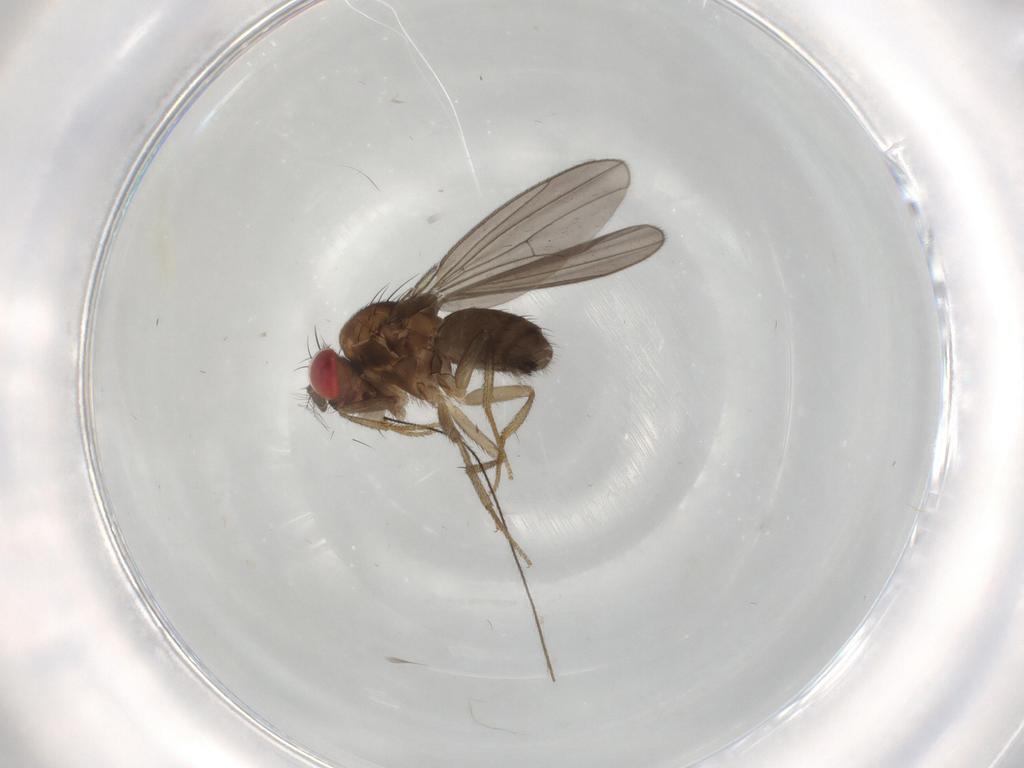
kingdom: Animalia
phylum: Arthropoda
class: Insecta
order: Diptera
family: Drosophilidae
